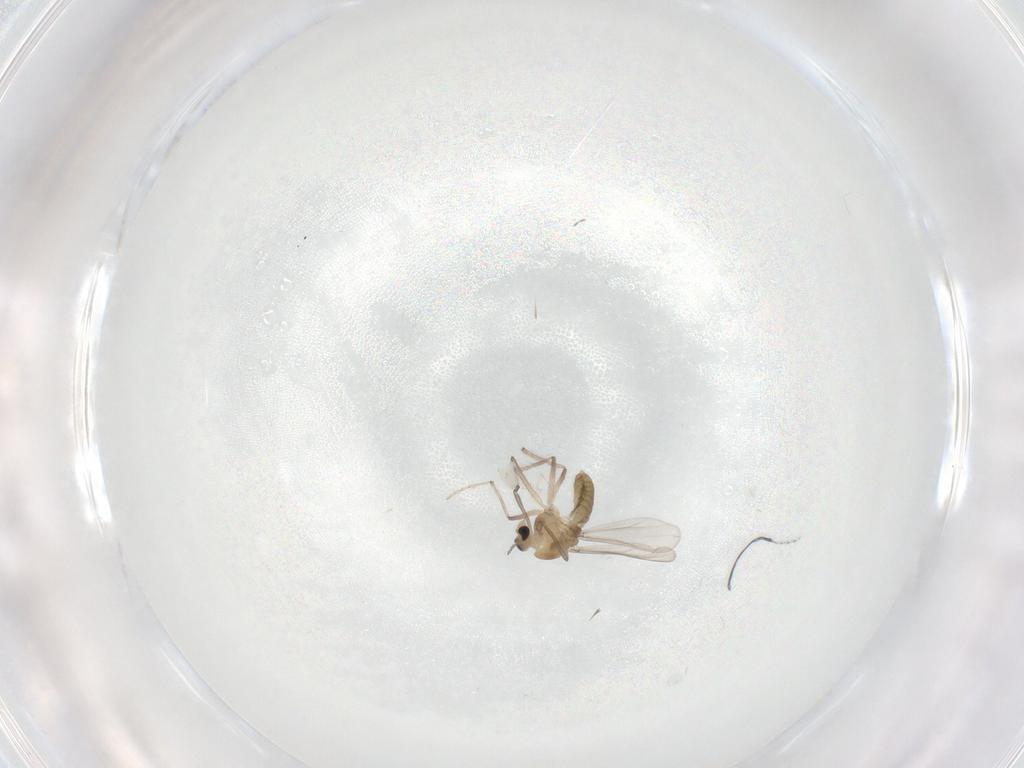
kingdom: Animalia
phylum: Arthropoda
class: Insecta
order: Diptera
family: Chironomidae
